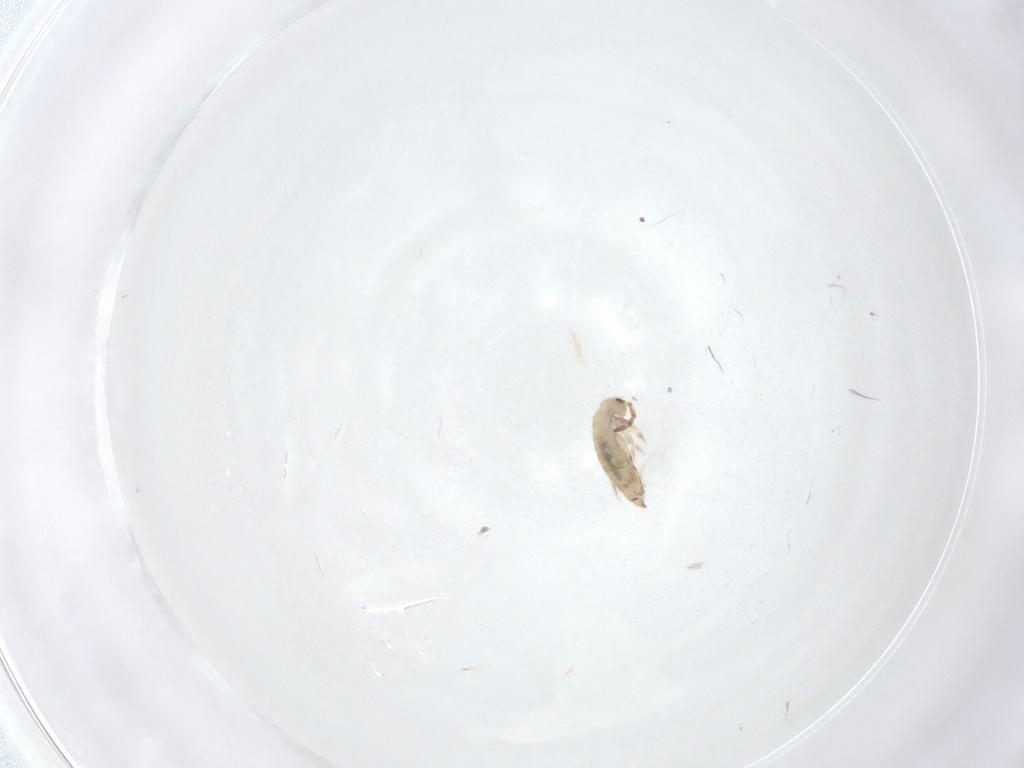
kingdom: Animalia
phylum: Arthropoda
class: Collembola
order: Entomobryomorpha
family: Entomobryidae
